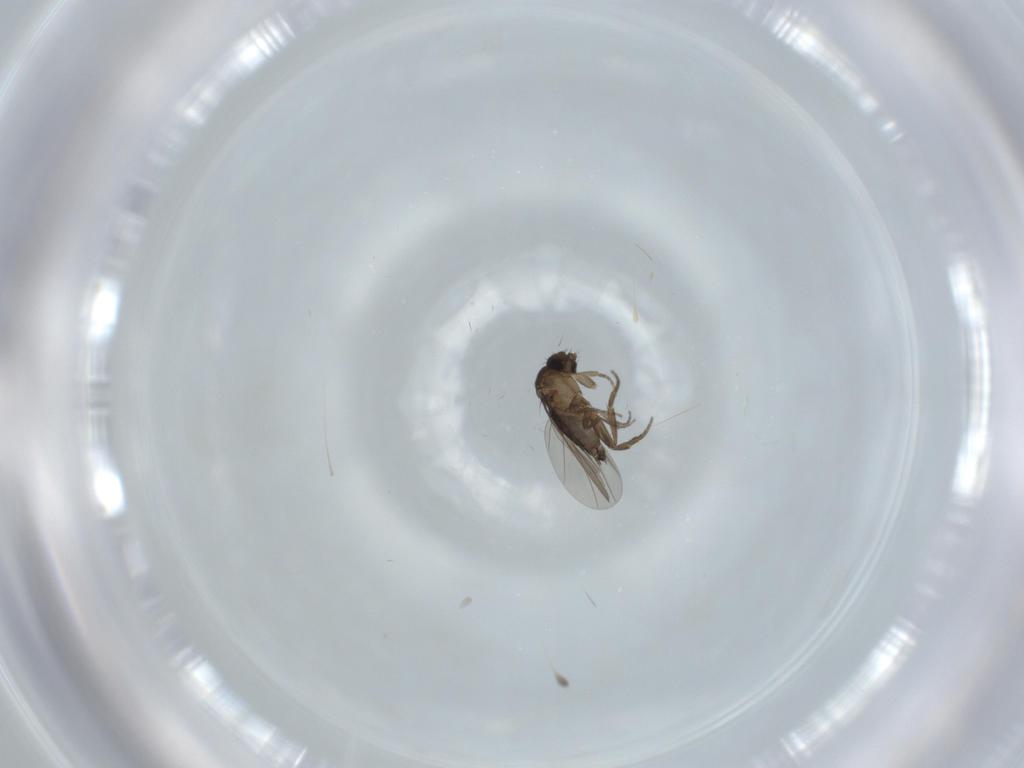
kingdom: Animalia
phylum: Arthropoda
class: Insecta
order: Diptera
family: Phoridae
